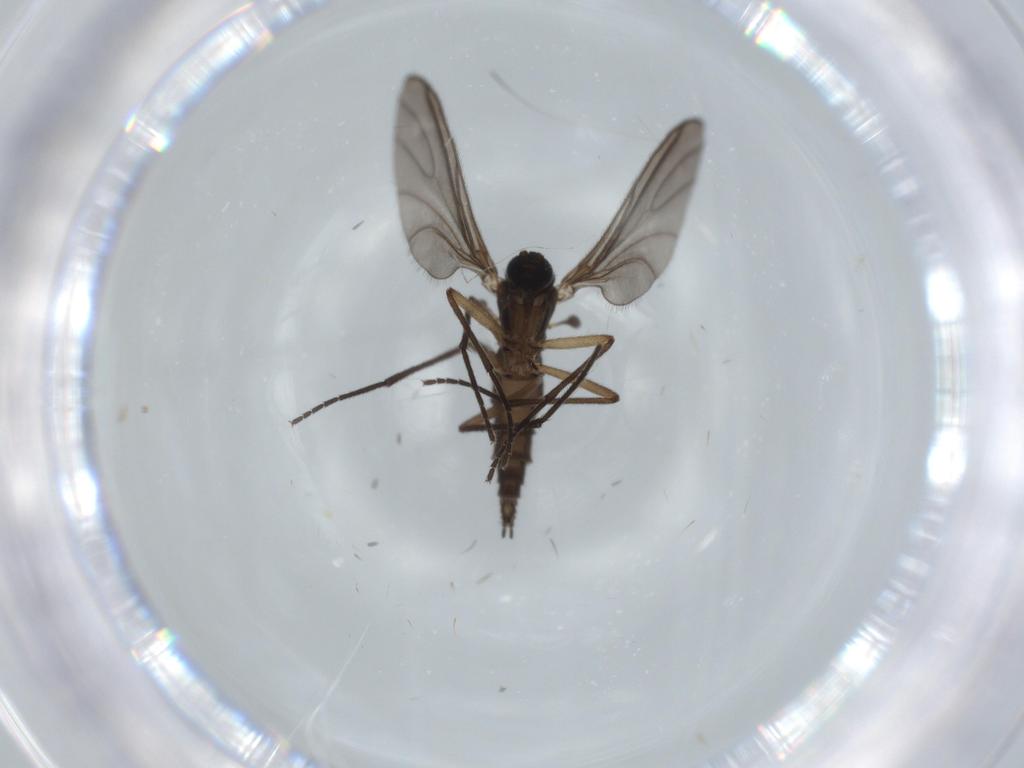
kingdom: Animalia
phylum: Arthropoda
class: Insecta
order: Diptera
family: Sciaridae
